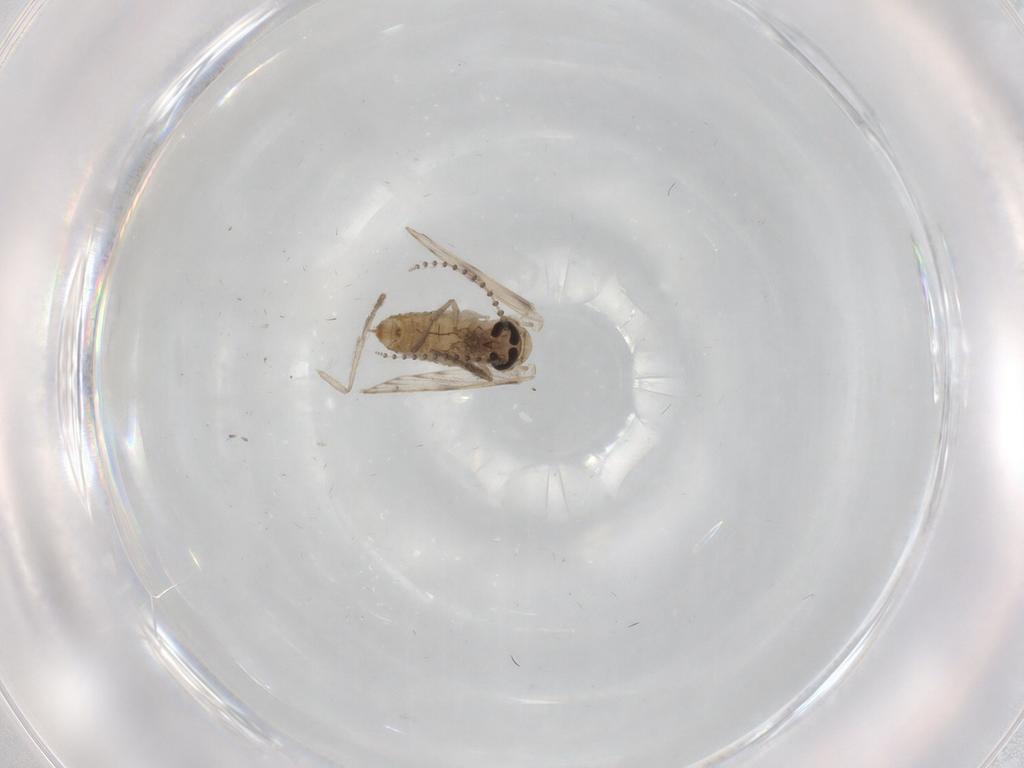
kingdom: Animalia
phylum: Arthropoda
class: Insecta
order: Diptera
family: Psychodidae
